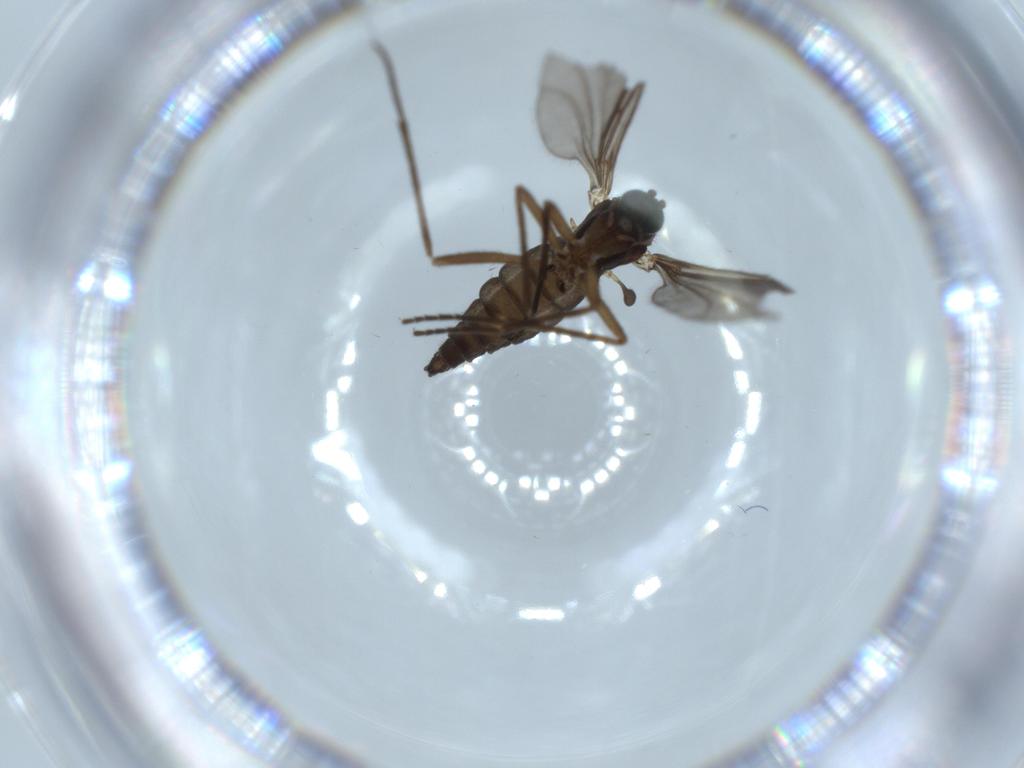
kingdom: Animalia
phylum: Arthropoda
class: Insecta
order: Diptera
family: Sciaridae
